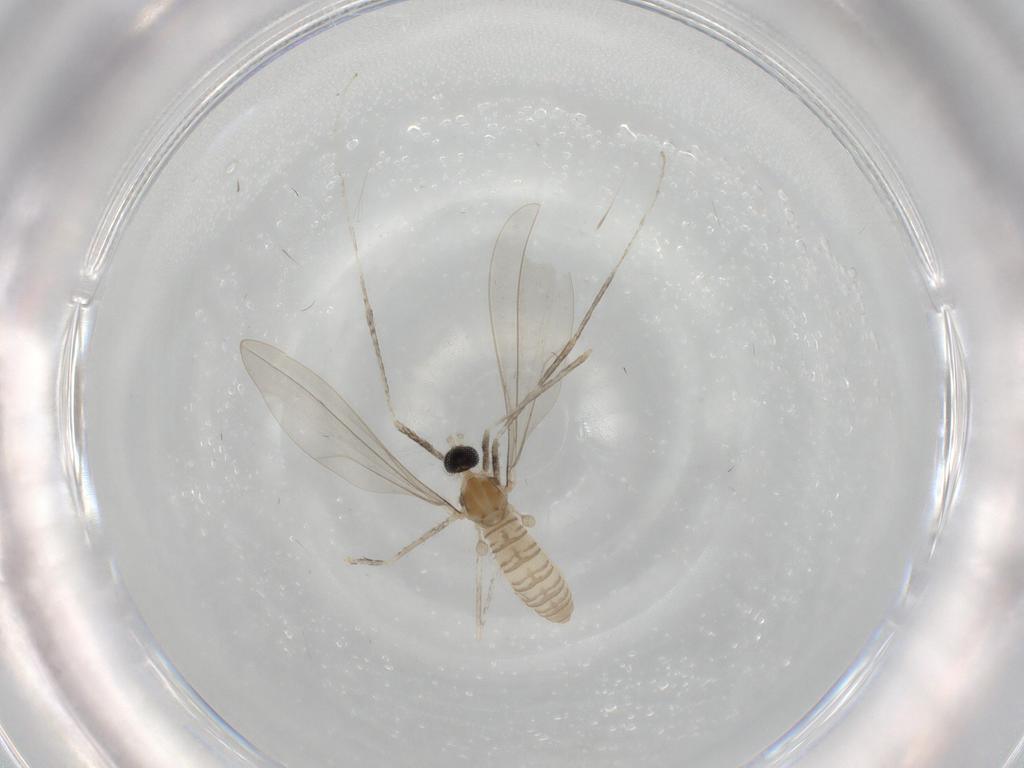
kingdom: Animalia
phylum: Arthropoda
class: Insecta
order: Diptera
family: Cecidomyiidae
